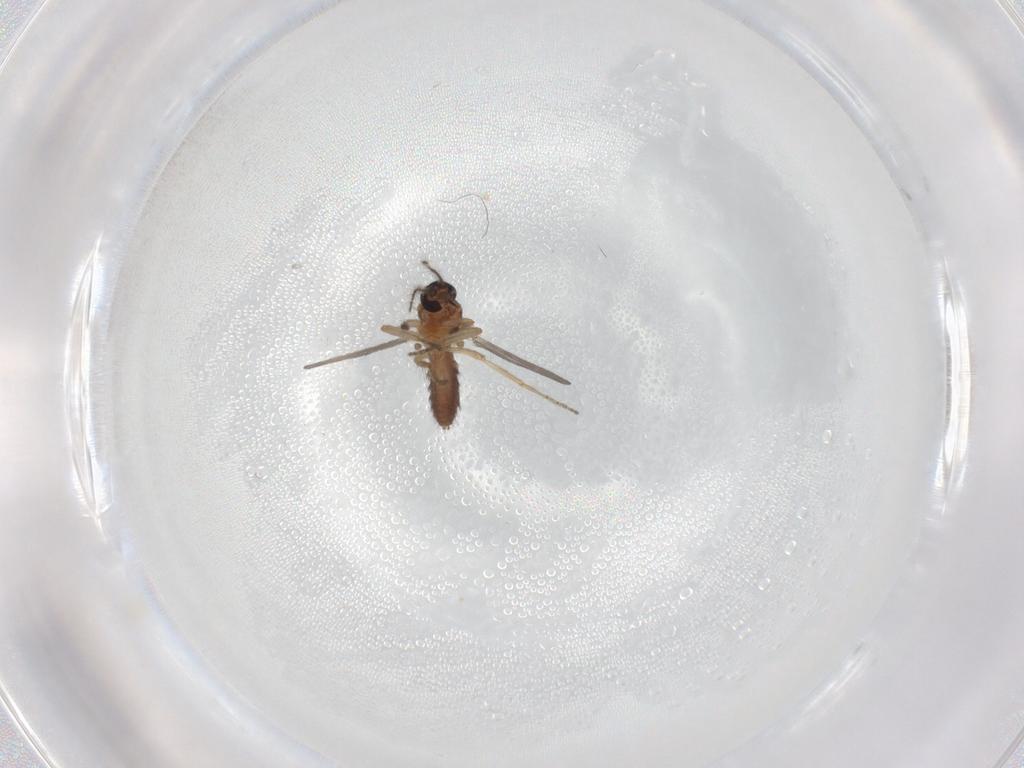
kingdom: Animalia
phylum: Arthropoda
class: Insecta
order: Diptera
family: Ceratopogonidae
